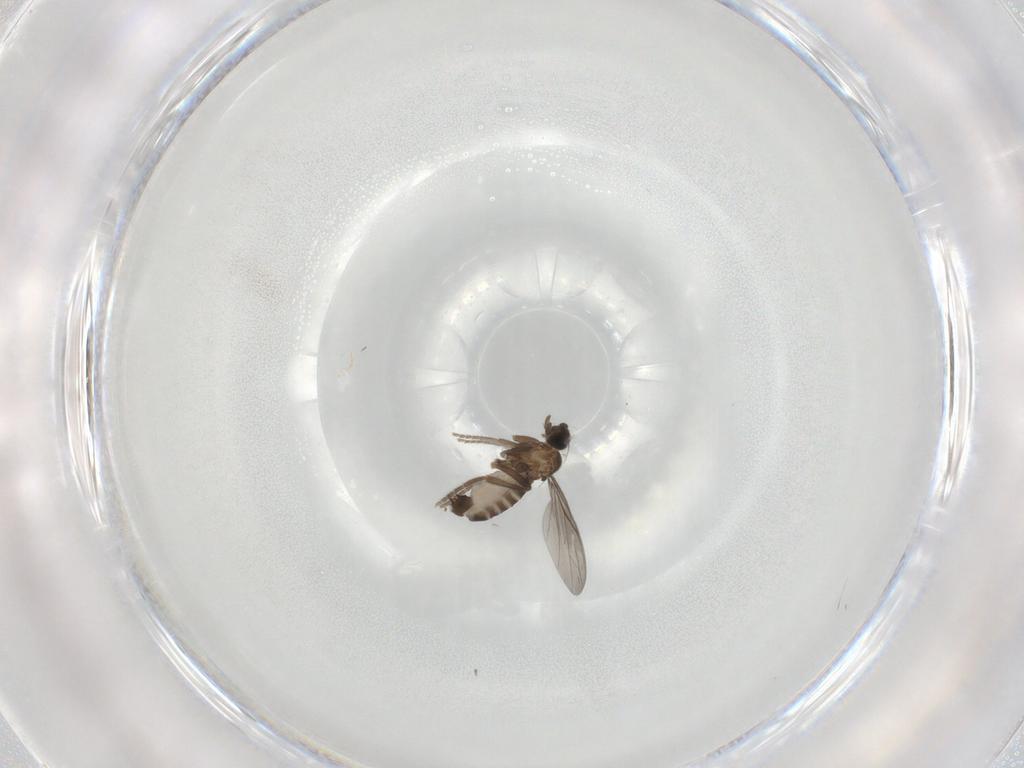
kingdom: Animalia
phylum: Arthropoda
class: Insecta
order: Diptera
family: Phoridae
